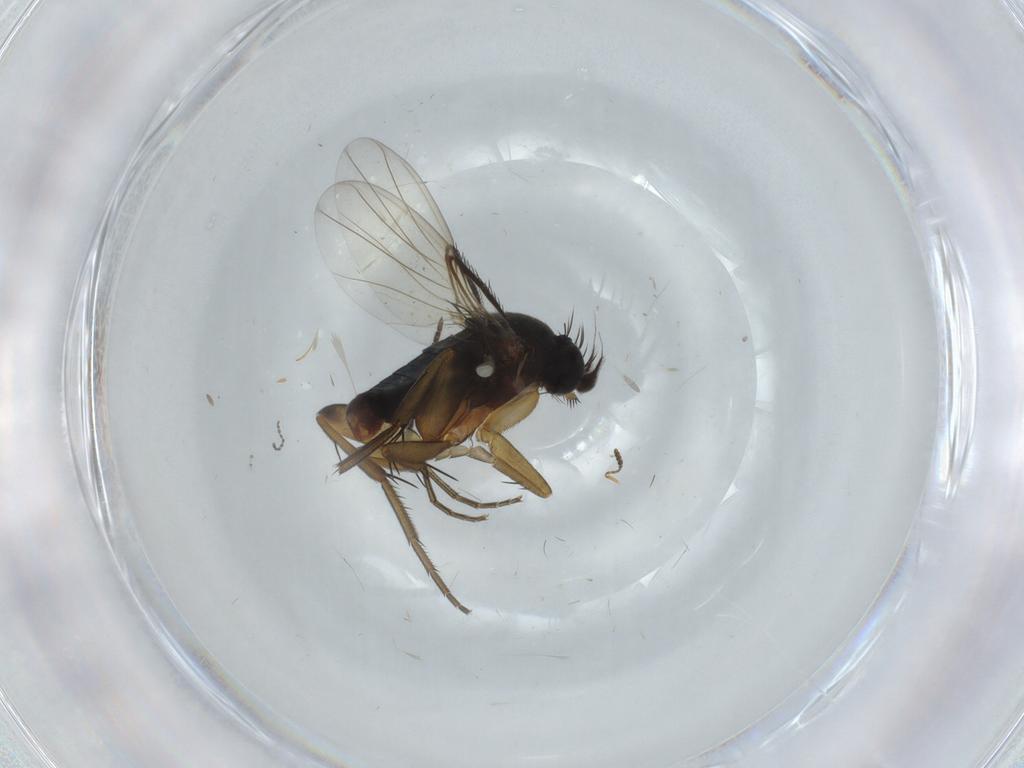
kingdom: Animalia
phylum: Arthropoda
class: Insecta
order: Diptera
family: Phoridae
